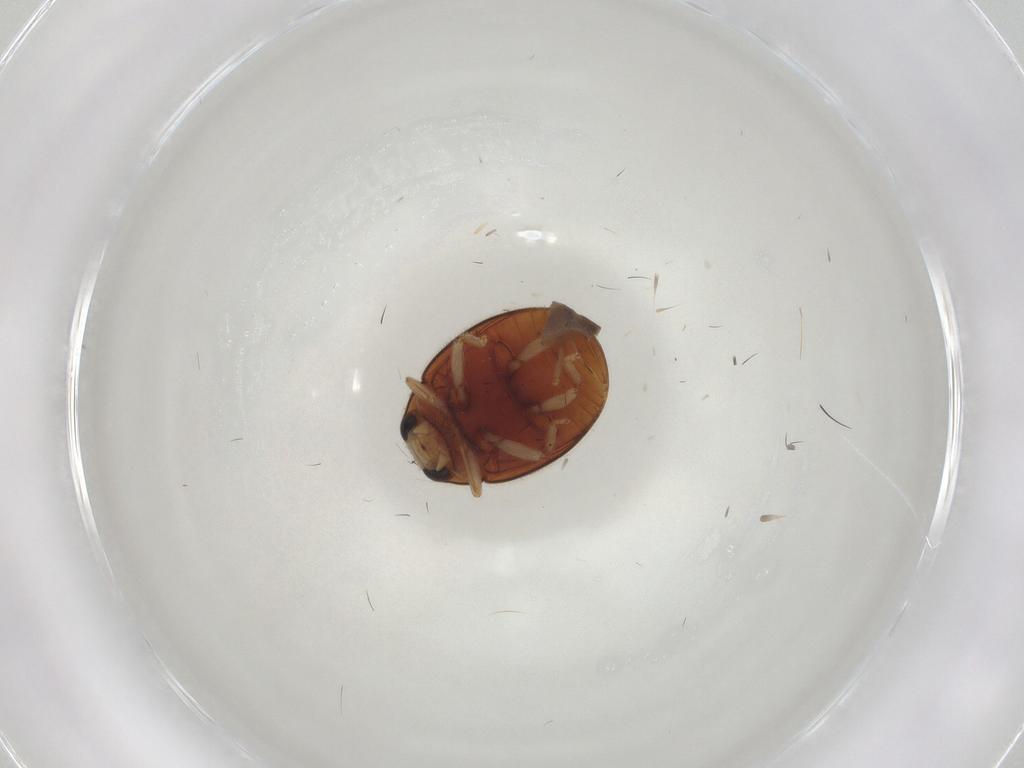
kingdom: Animalia
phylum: Arthropoda
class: Insecta
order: Coleoptera
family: Coccinellidae
